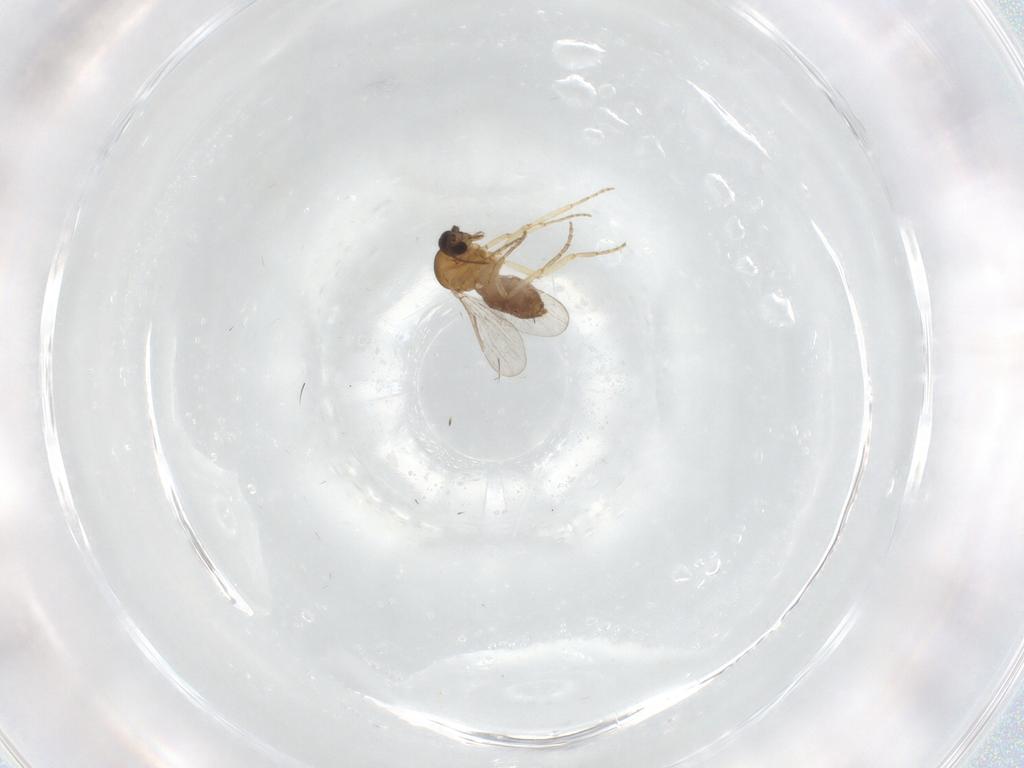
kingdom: Animalia
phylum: Arthropoda
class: Insecta
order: Diptera
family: Dolichopodidae
